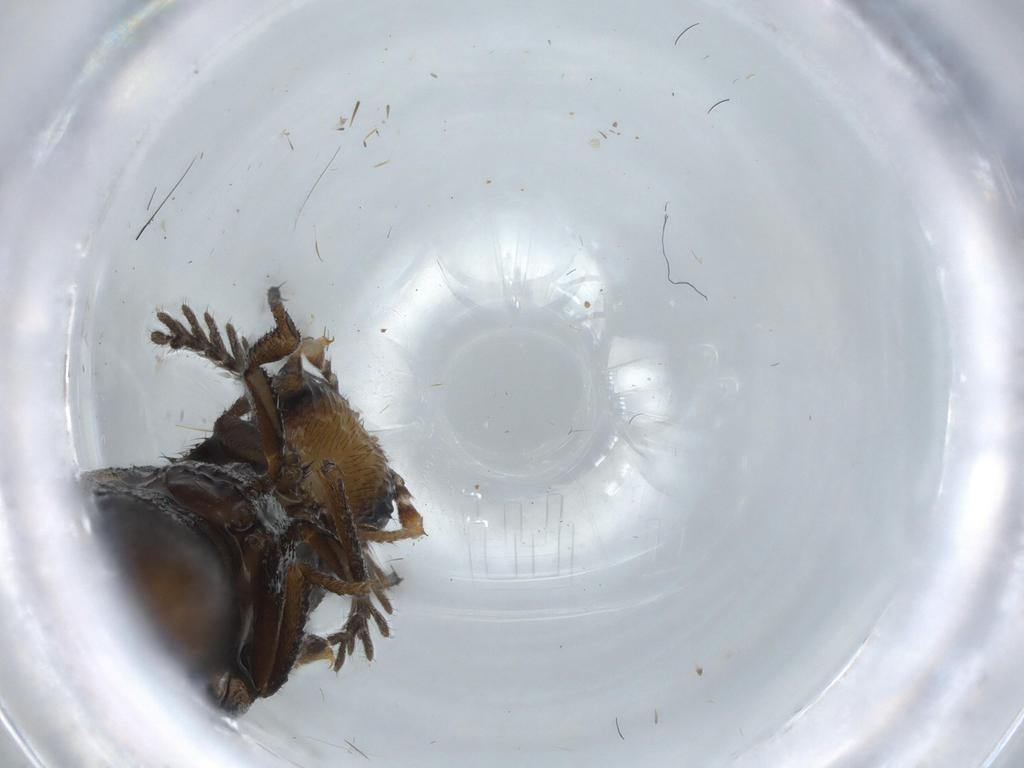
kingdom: Animalia
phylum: Arthropoda
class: Insecta
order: Coleoptera
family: Phengodidae
